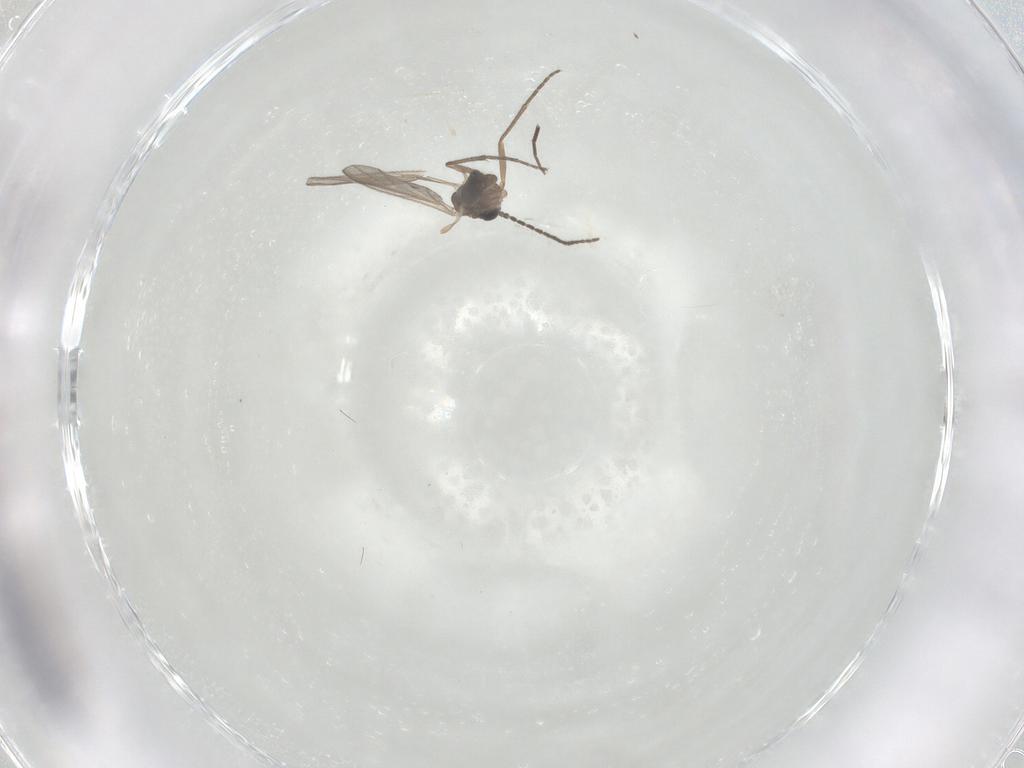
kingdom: Animalia
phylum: Arthropoda
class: Insecta
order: Diptera
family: Sciaridae
